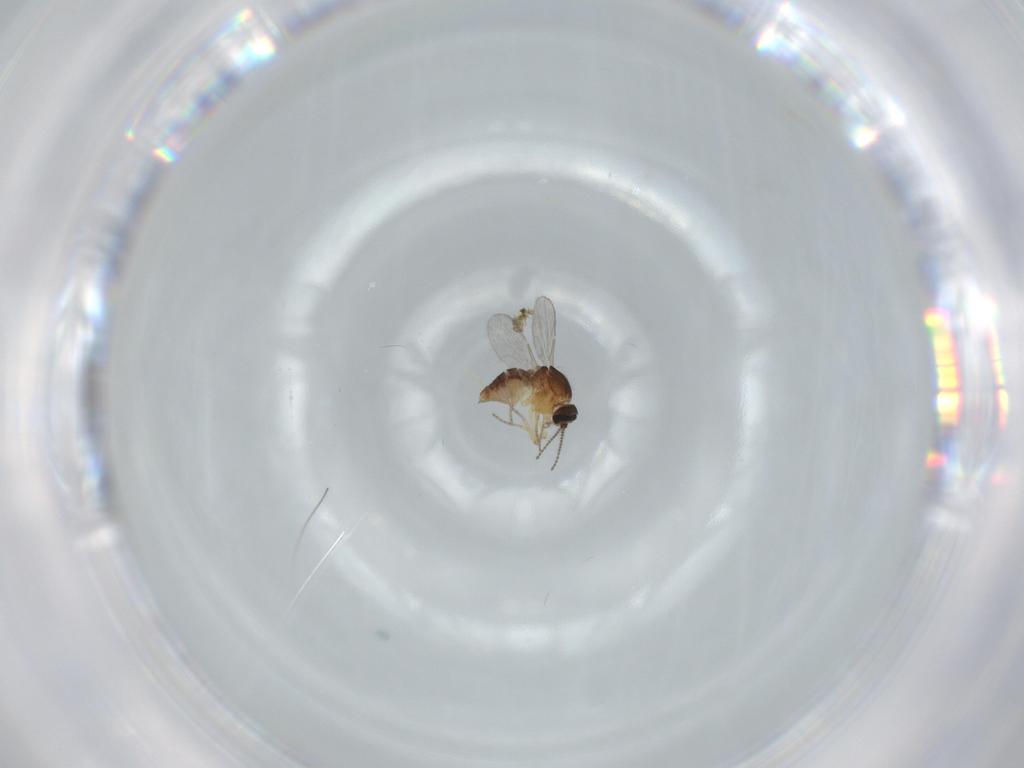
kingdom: Animalia
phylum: Arthropoda
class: Insecta
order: Diptera
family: Ceratopogonidae
